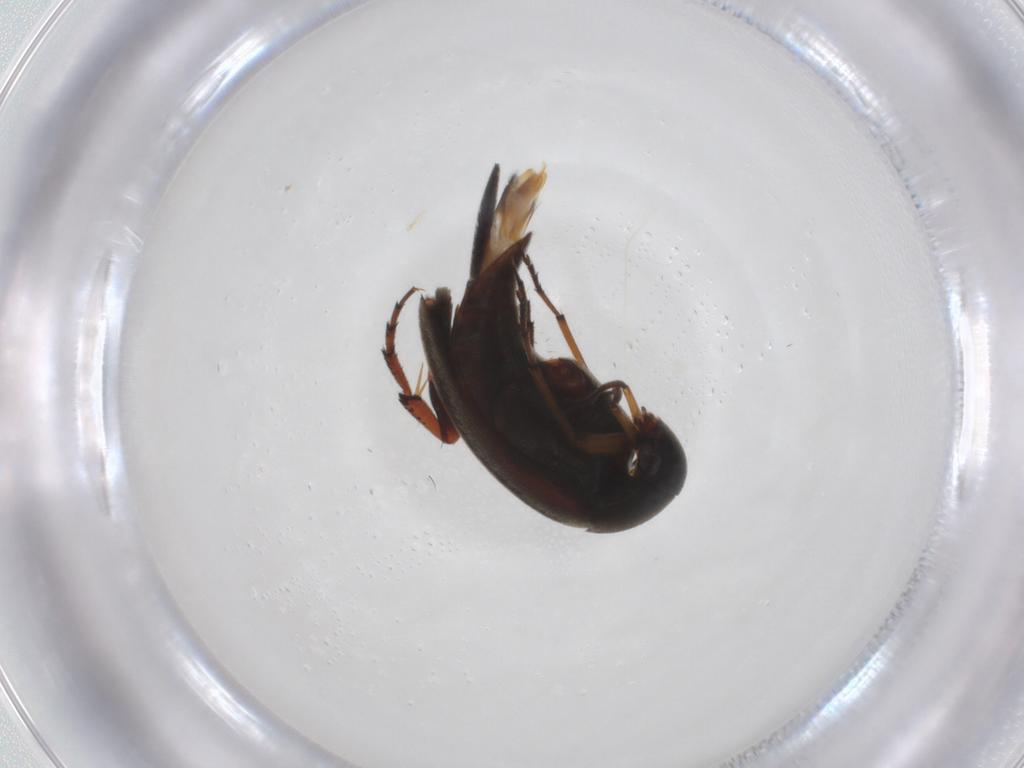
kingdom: Animalia
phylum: Arthropoda
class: Insecta
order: Coleoptera
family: Mordellidae
